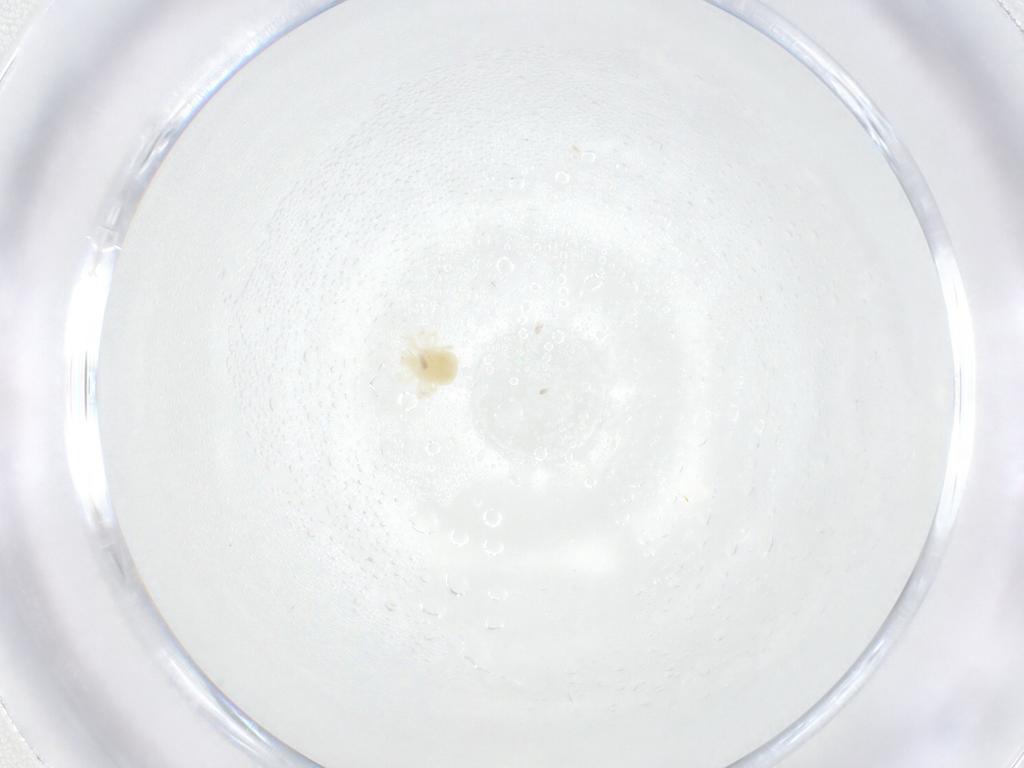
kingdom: Animalia
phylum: Arthropoda
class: Arachnida
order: Trombidiformes
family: Anystidae
